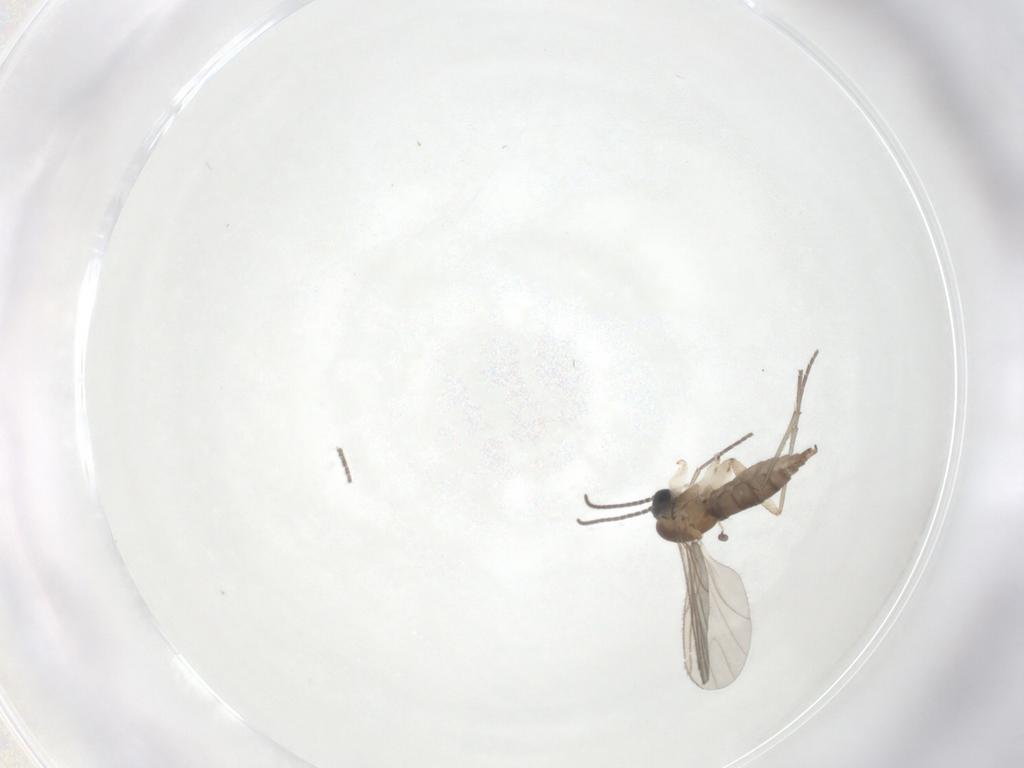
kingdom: Animalia
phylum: Arthropoda
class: Insecta
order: Diptera
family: Sciaridae
